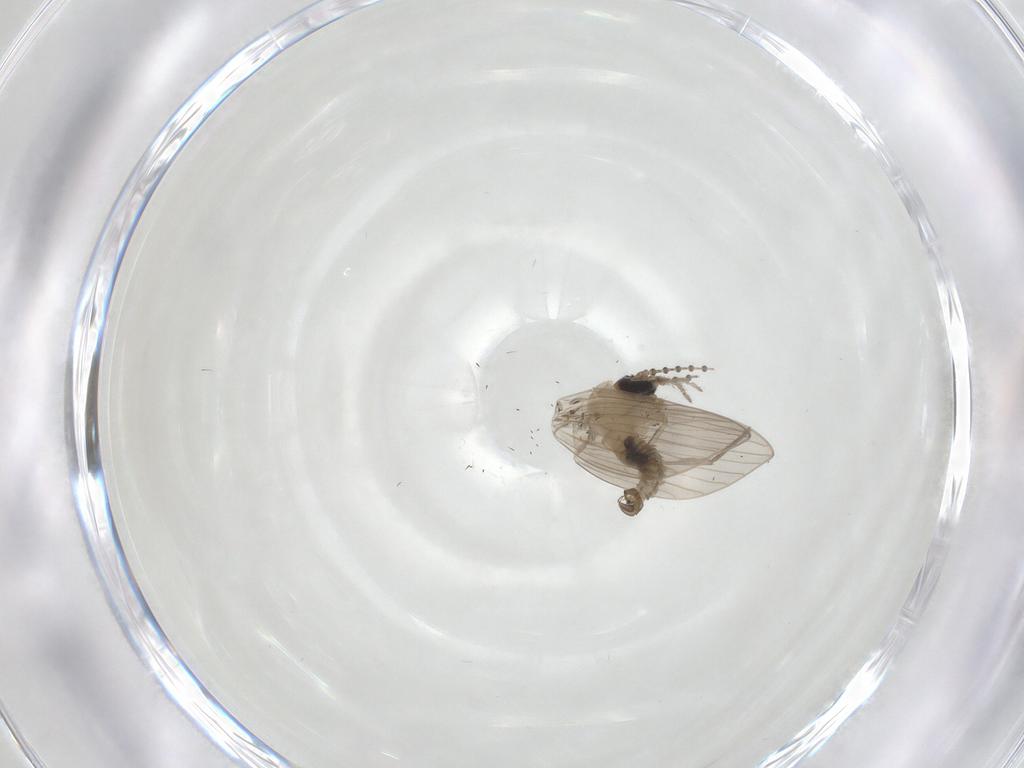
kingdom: Animalia
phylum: Arthropoda
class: Insecta
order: Diptera
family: Psychodidae
